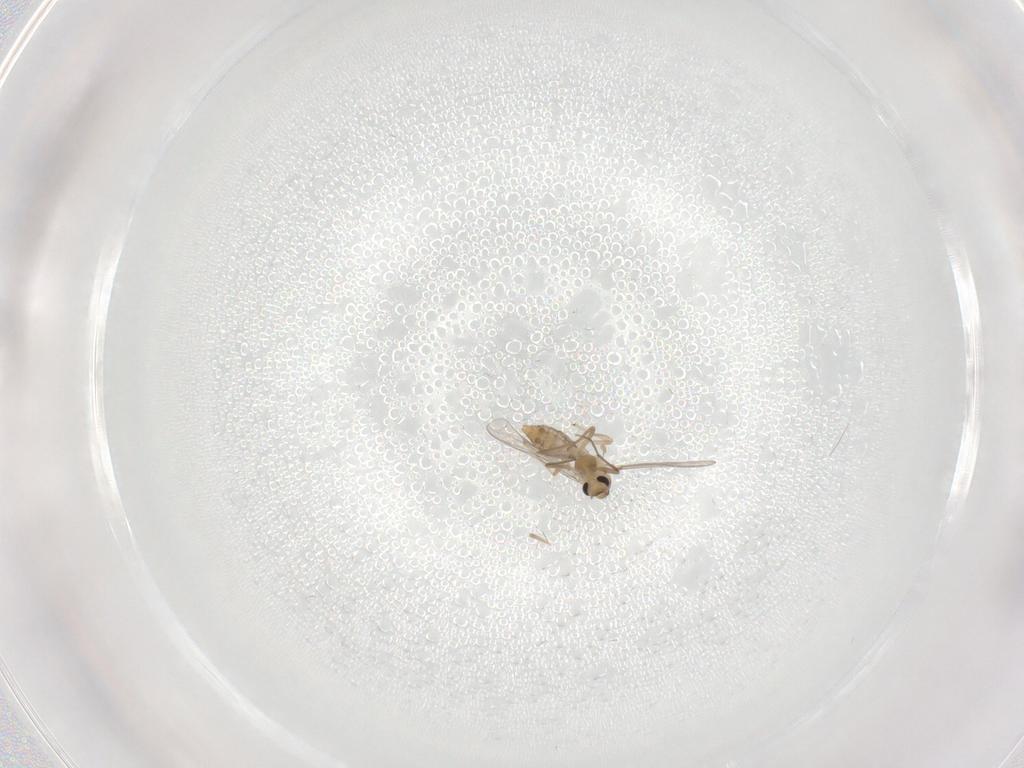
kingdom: Animalia
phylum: Arthropoda
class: Insecta
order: Diptera
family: Chironomidae
